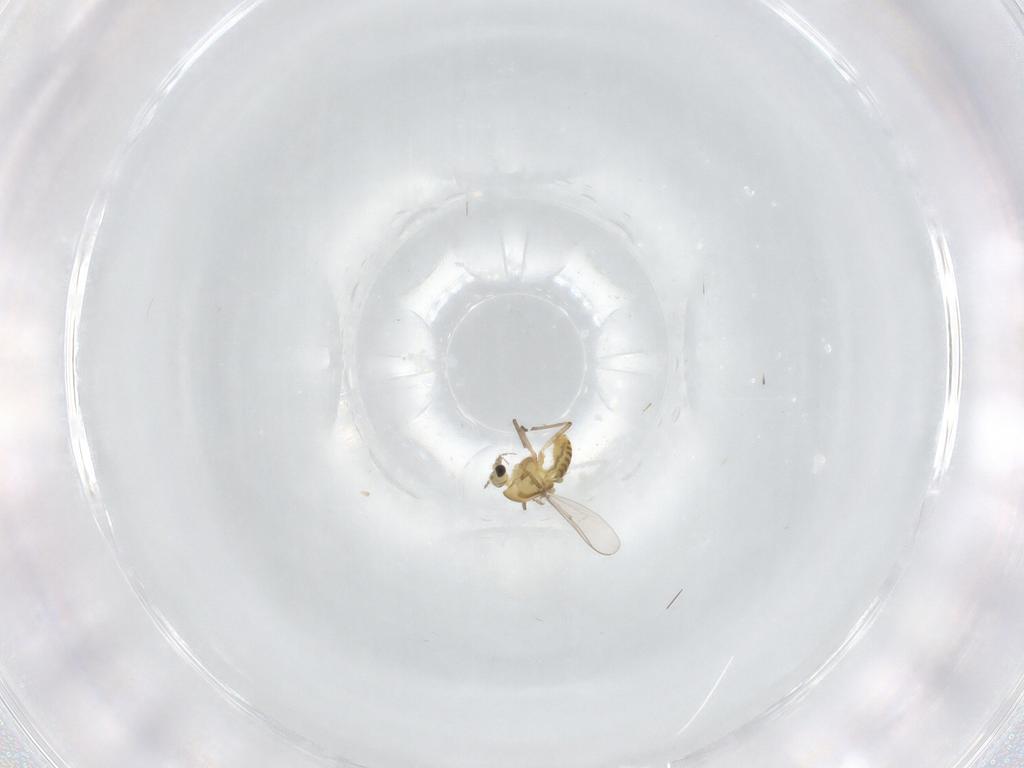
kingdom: Animalia
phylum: Arthropoda
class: Insecta
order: Diptera
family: Chironomidae
